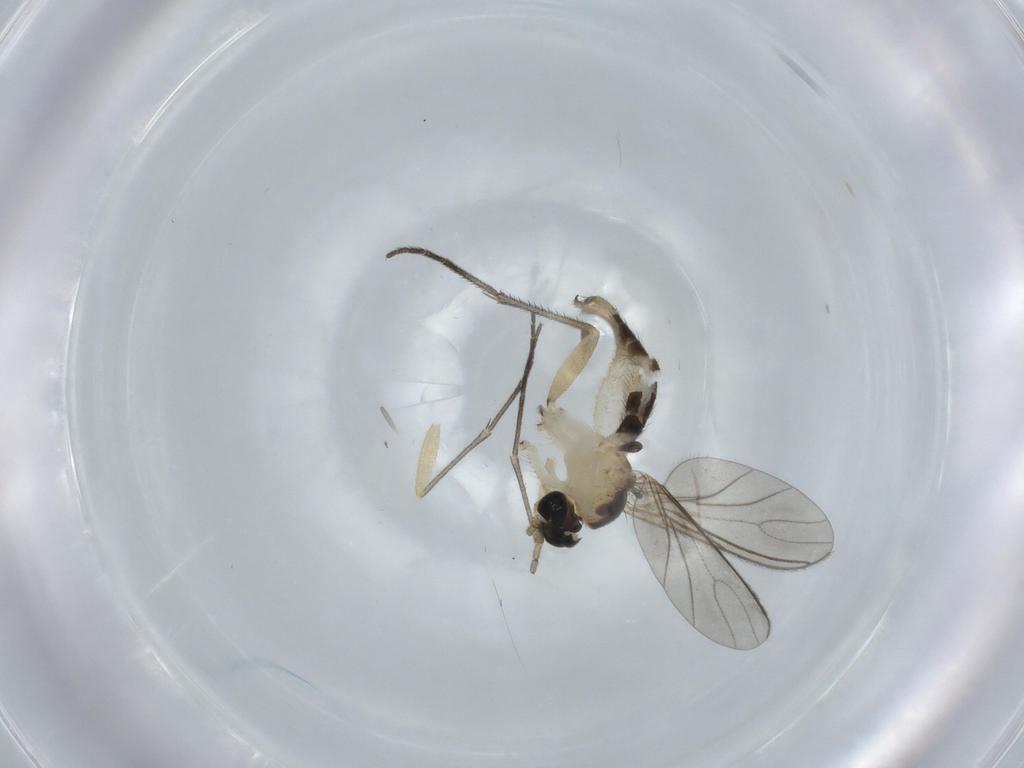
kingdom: Animalia
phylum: Arthropoda
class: Insecta
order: Diptera
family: Sciaridae
